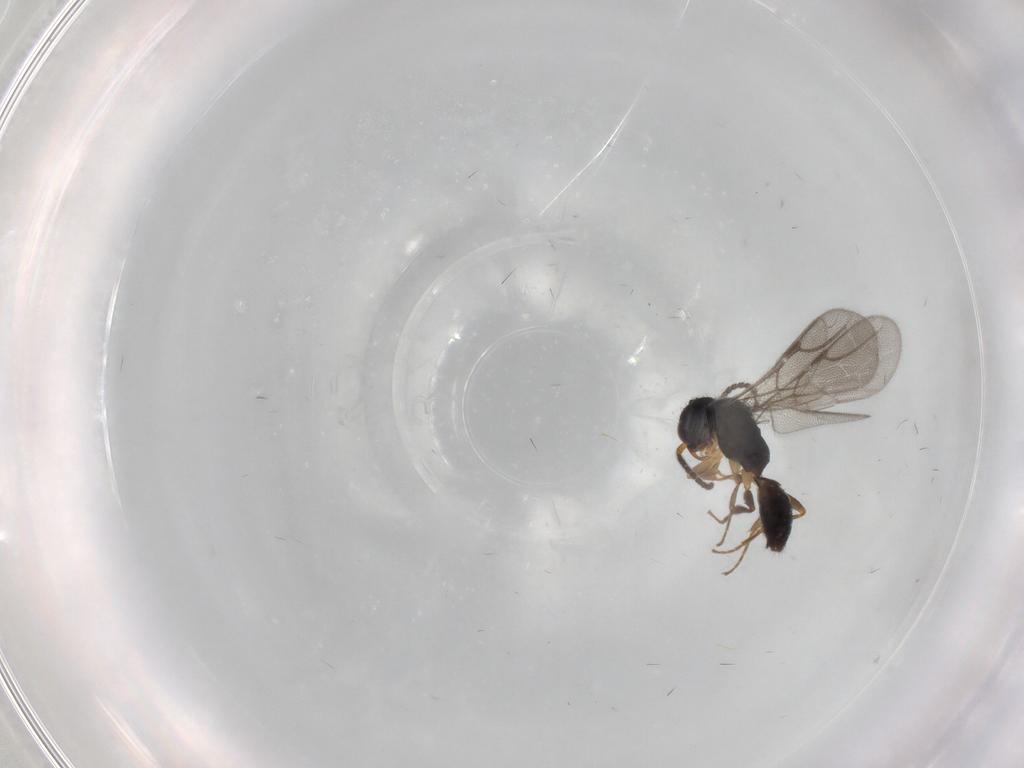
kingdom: Animalia
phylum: Arthropoda
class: Insecta
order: Hymenoptera
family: Bethylidae
